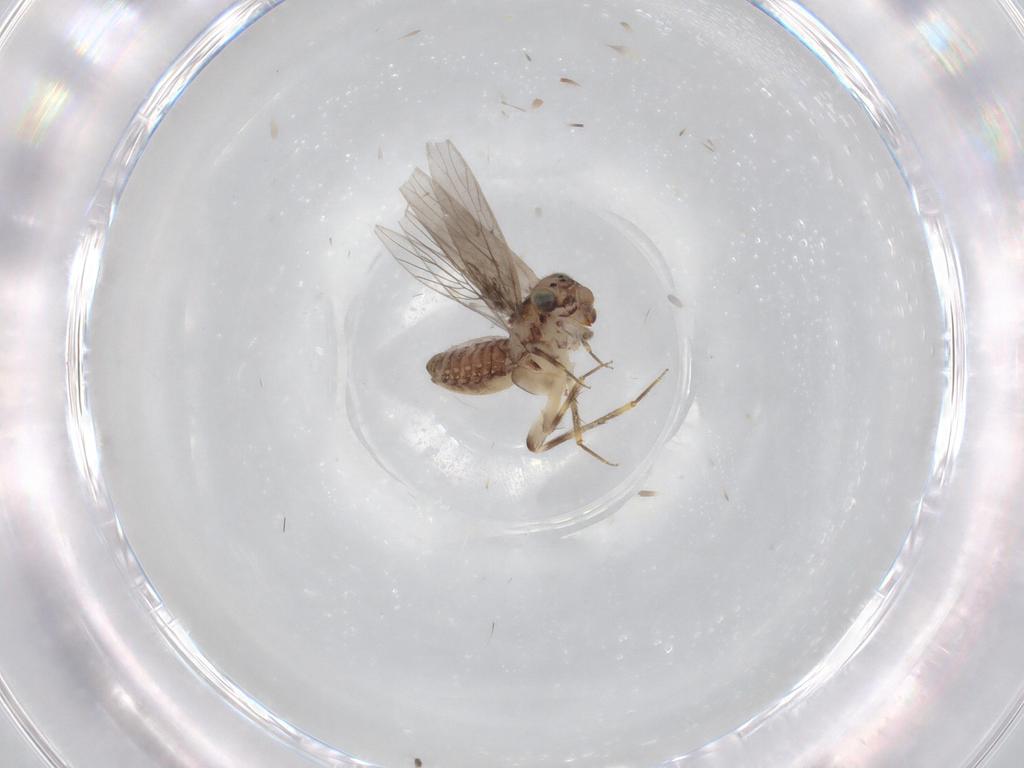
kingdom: Animalia
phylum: Arthropoda
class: Insecta
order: Psocodea
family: Lepidopsocidae
